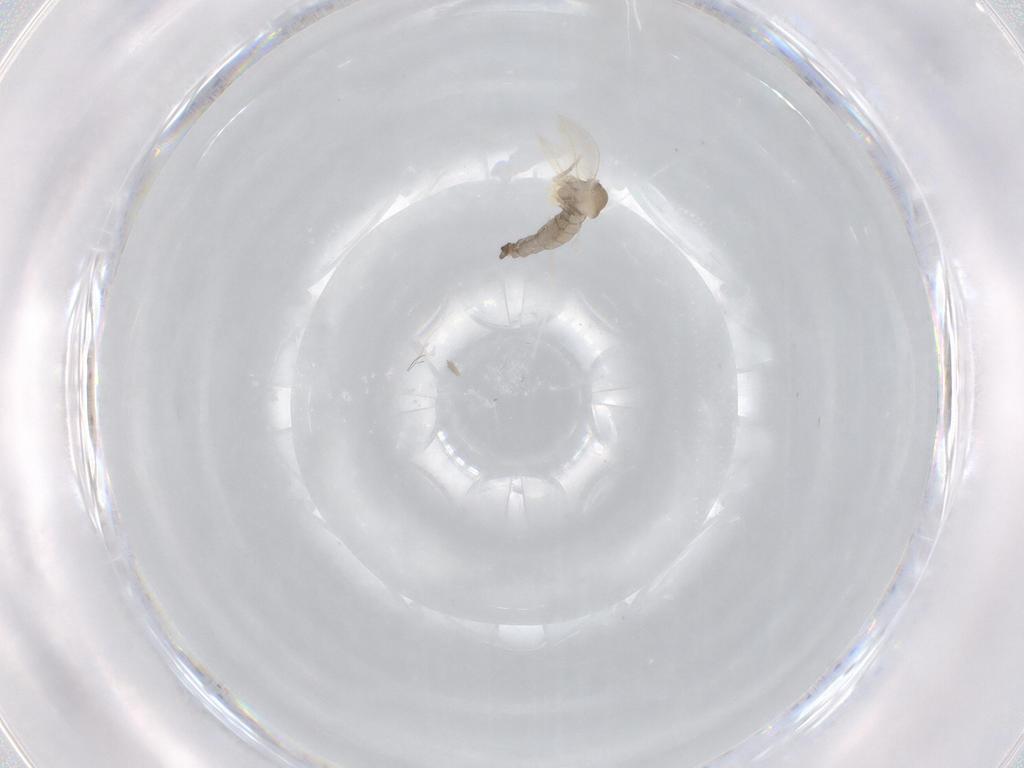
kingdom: Animalia
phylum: Arthropoda
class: Insecta
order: Diptera
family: Cecidomyiidae
